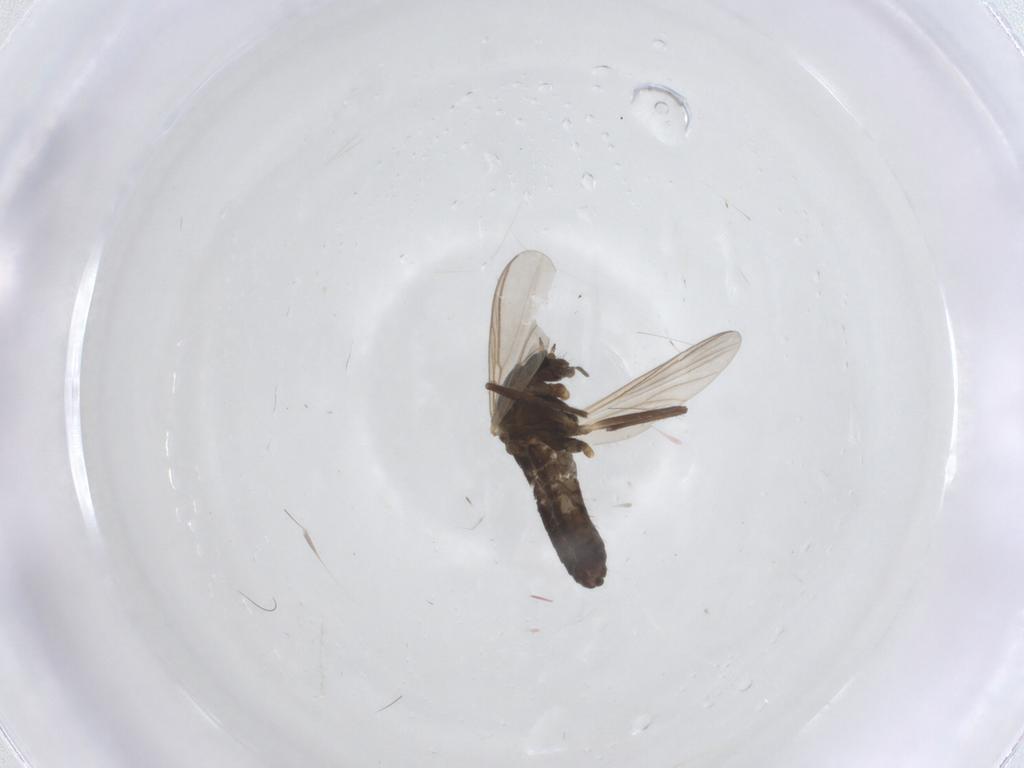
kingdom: Animalia
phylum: Arthropoda
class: Insecta
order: Diptera
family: Chironomidae
